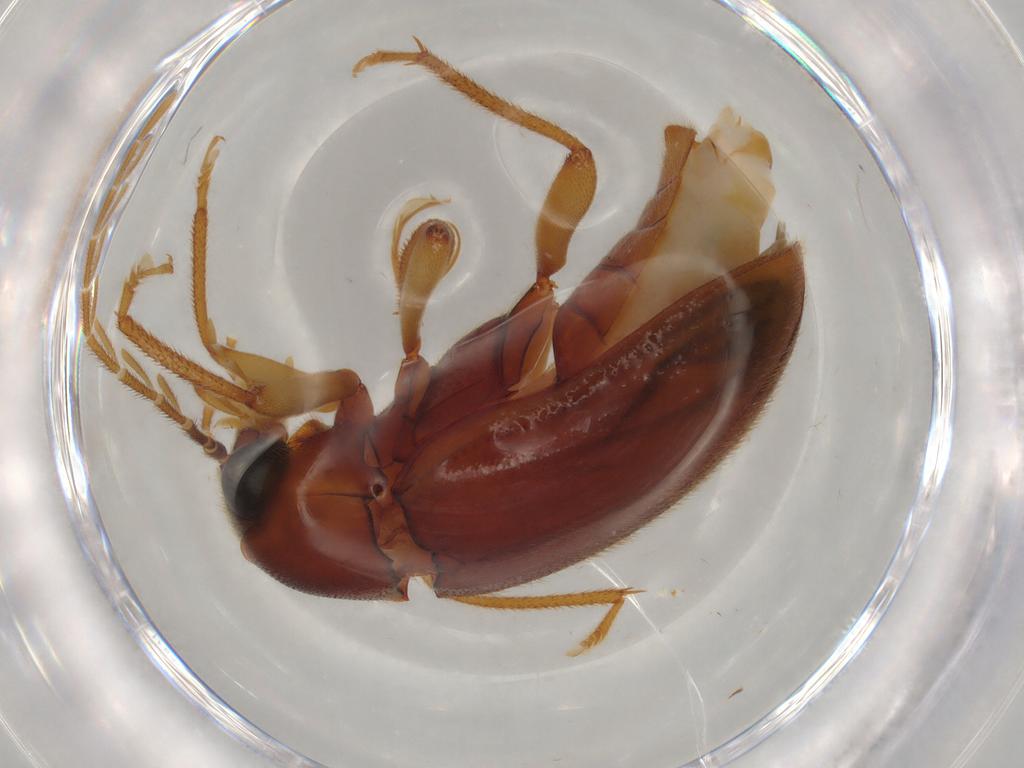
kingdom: Animalia
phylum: Arthropoda
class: Insecta
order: Coleoptera
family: Ptilodactylidae
